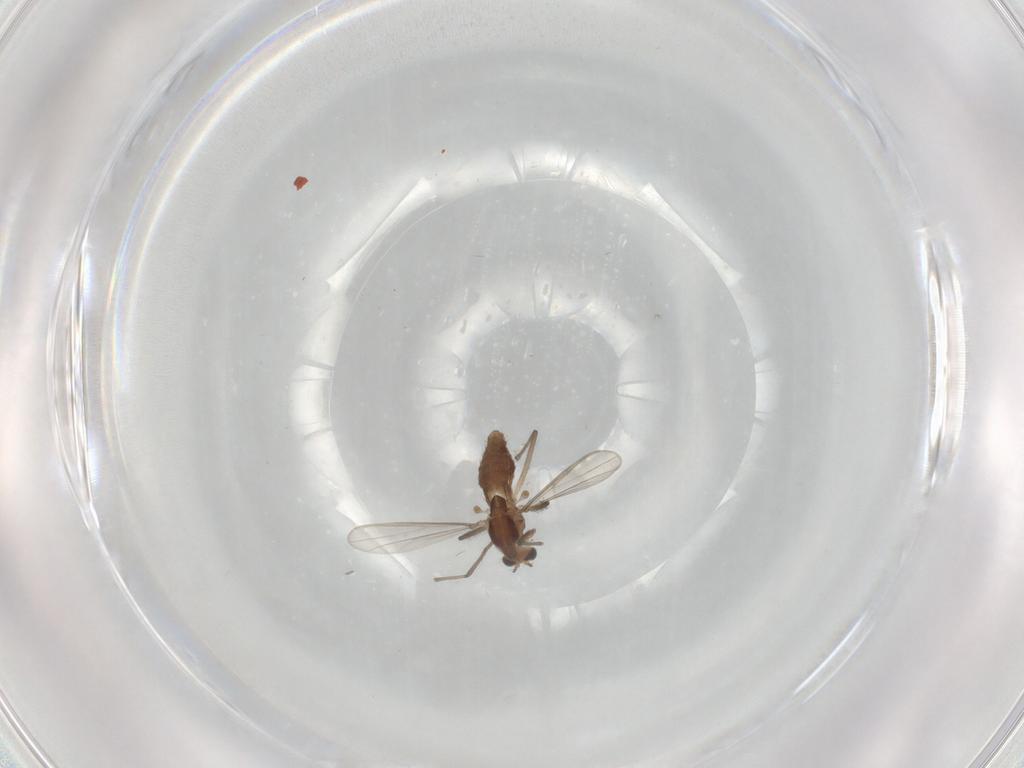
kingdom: Animalia
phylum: Arthropoda
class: Insecta
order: Diptera
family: Chironomidae
